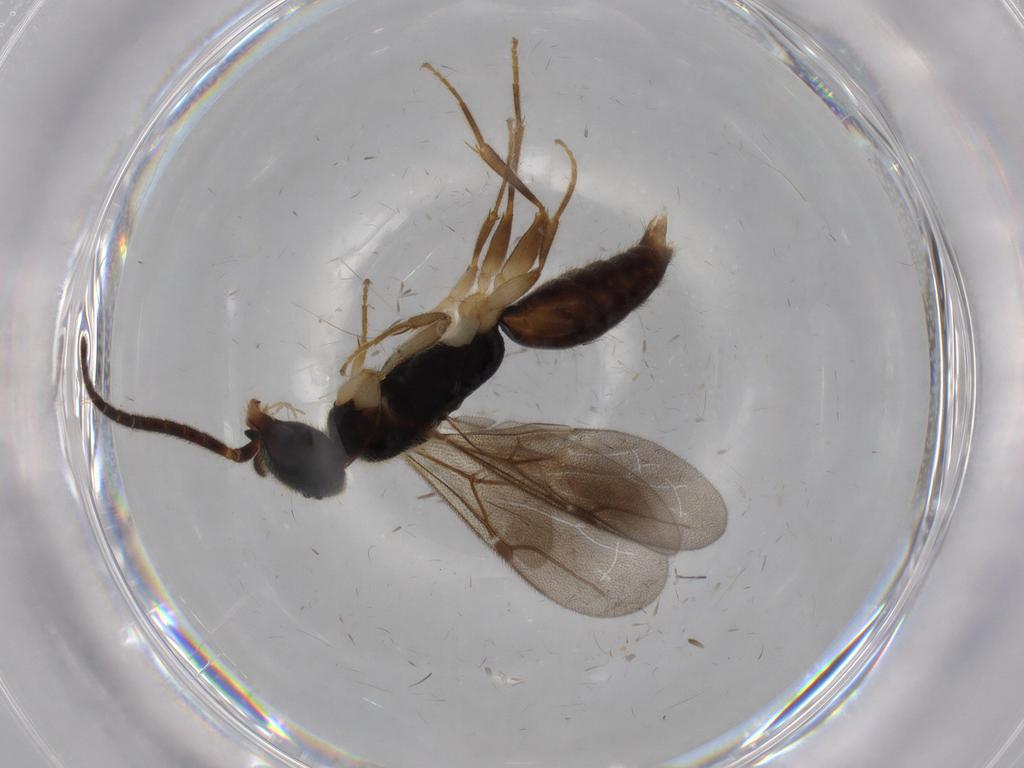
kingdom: Animalia
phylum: Arthropoda
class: Insecta
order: Hymenoptera
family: Bethylidae
